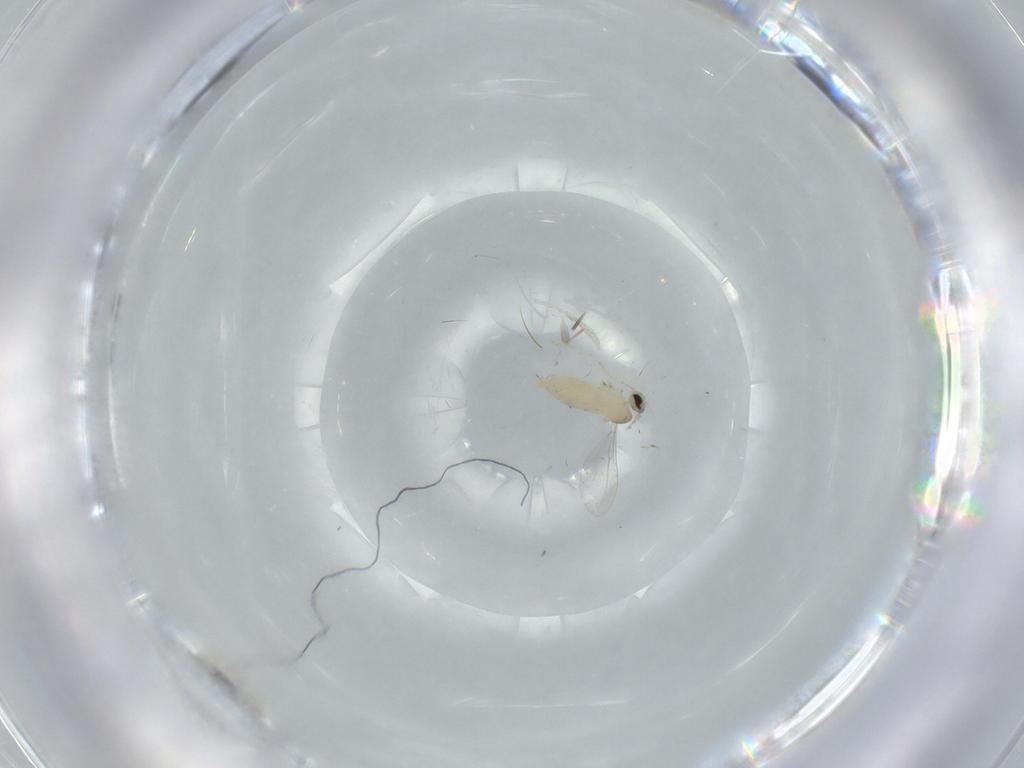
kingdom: Animalia
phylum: Arthropoda
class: Insecta
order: Diptera
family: Cecidomyiidae
